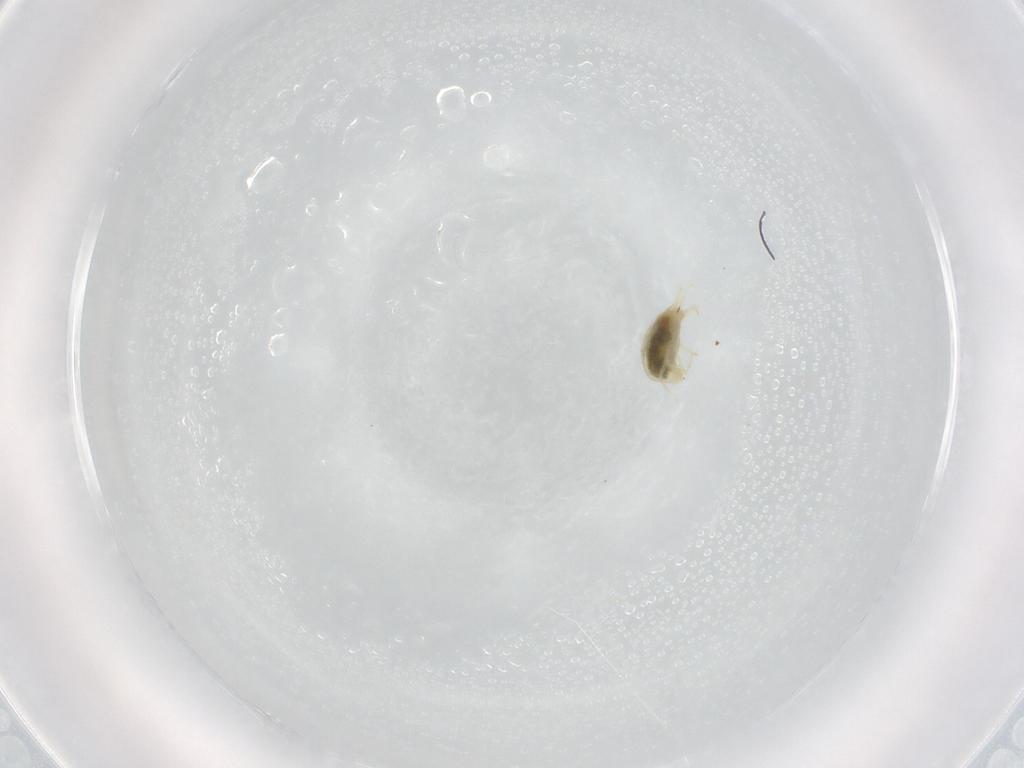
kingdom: Animalia
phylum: Arthropoda
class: Arachnida
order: Trombidiformes
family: Tetranychidae
